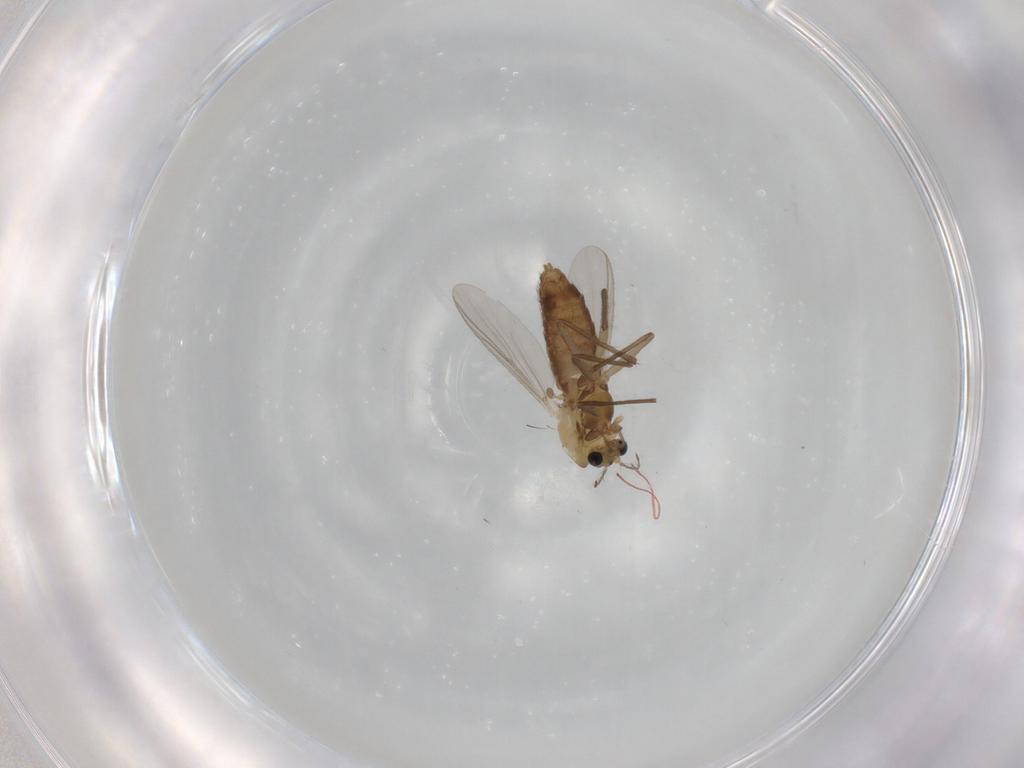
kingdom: Animalia
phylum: Arthropoda
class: Insecta
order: Diptera
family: Chironomidae
